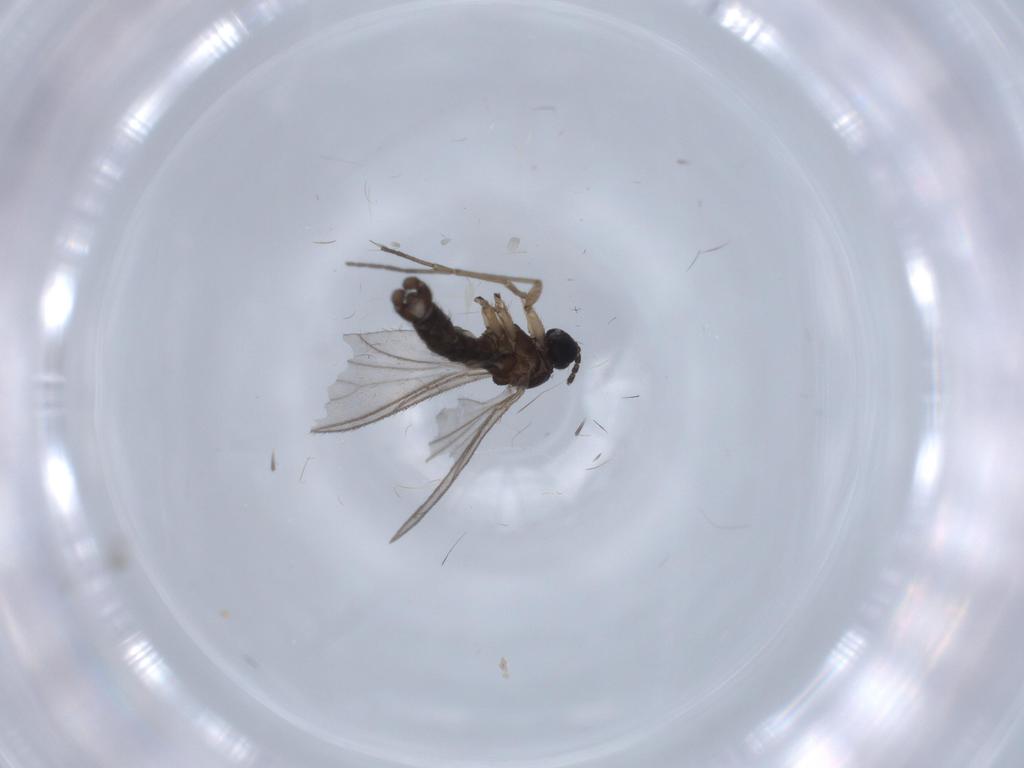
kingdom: Animalia
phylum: Arthropoda
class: Insecta
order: Diptera
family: Sciaridae
